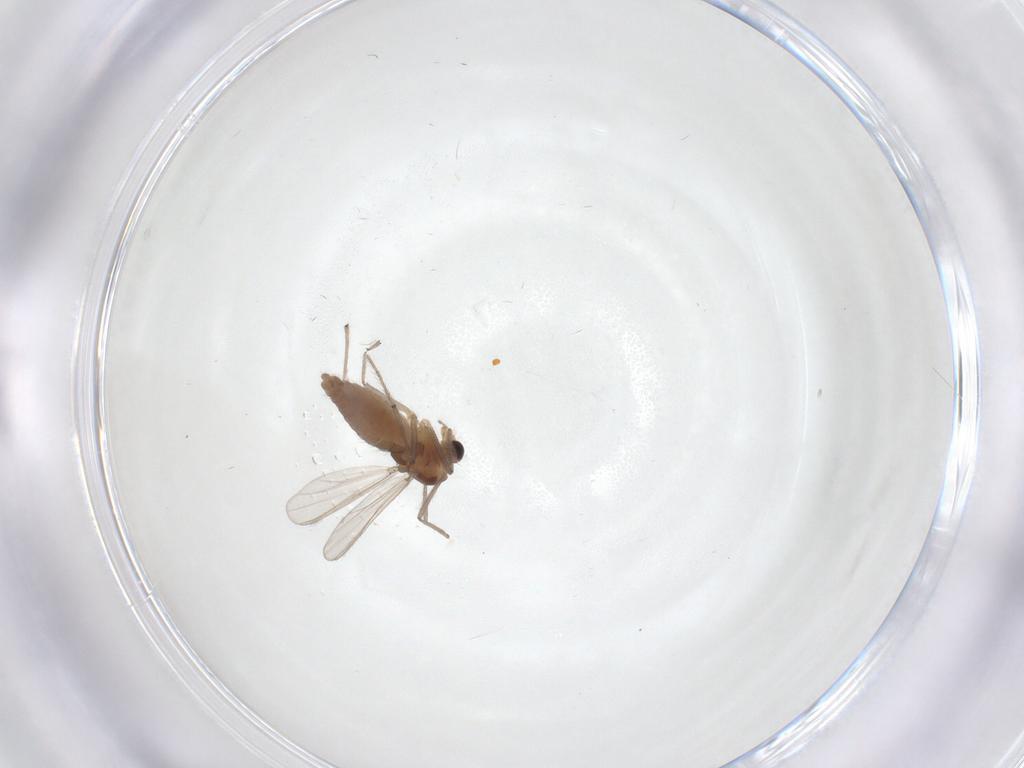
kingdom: Animalia
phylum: Arthropoda
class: Insecta
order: Diptera
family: Chironomidae
